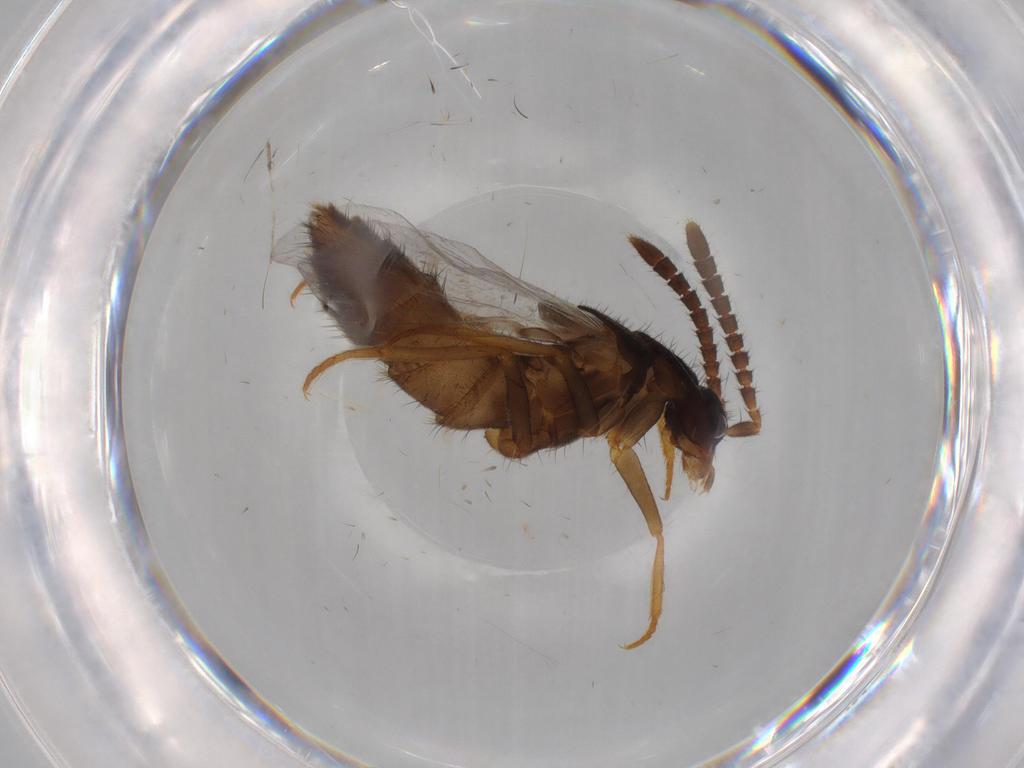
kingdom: Animalia
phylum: Arthropoda
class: Insecta
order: Coleoptera
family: Staphylinidae
